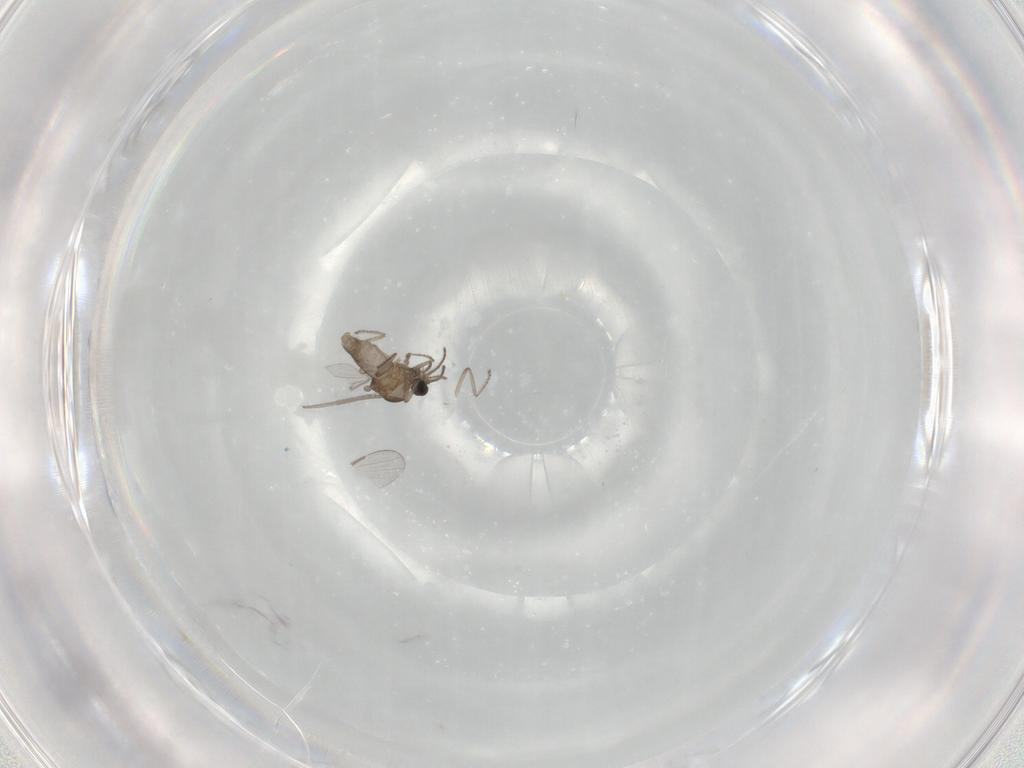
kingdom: Animalia
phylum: Arthropoda
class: Insecta
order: Diptera
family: Ceratopogonidae
